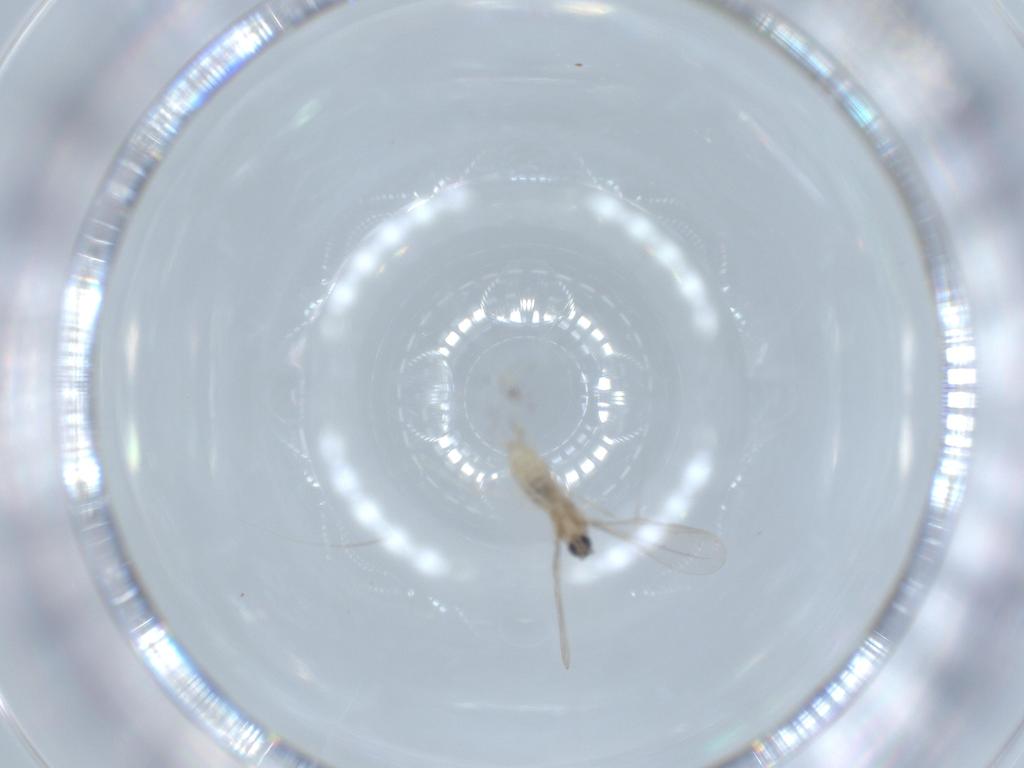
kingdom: Animalia
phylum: Arthropoda
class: Insecta
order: Diptera
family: Cecidomyiidae
